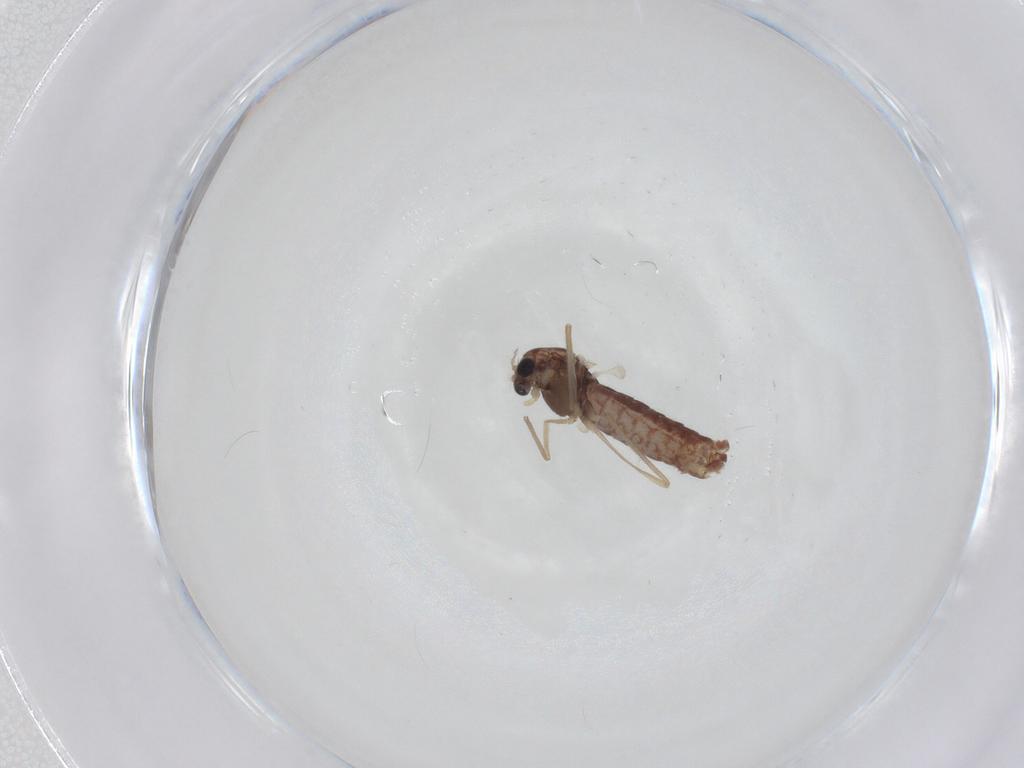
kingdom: Animalia
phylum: Arthropoda
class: Insecta
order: Diptera
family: Chironomidae
